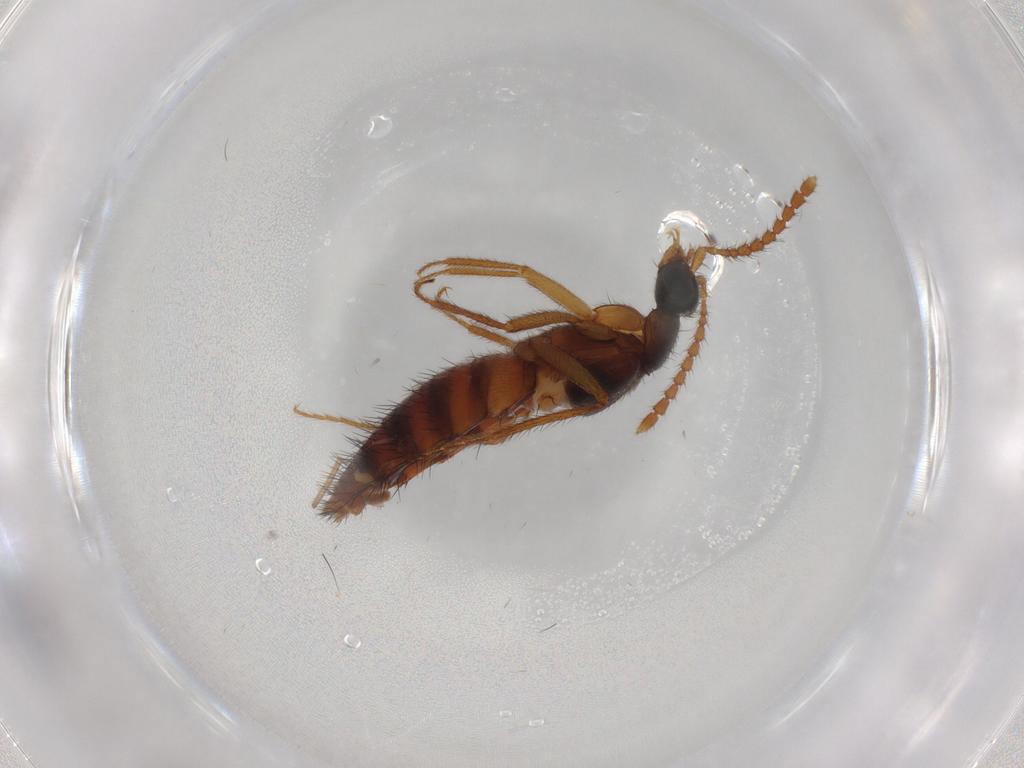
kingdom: Animalia
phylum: Arthropoda
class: Insecta
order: Coleoptera
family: Staphylinidae
